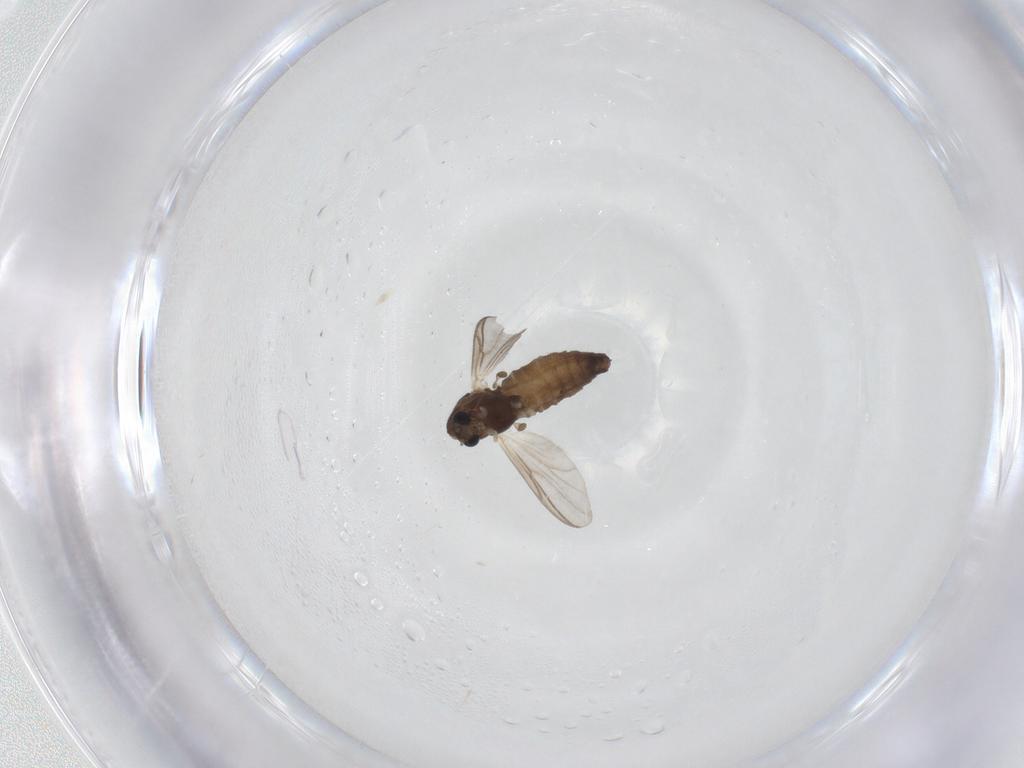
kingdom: Animalia
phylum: Arthropoda
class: Insecta
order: Diptera
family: Chironomidae
